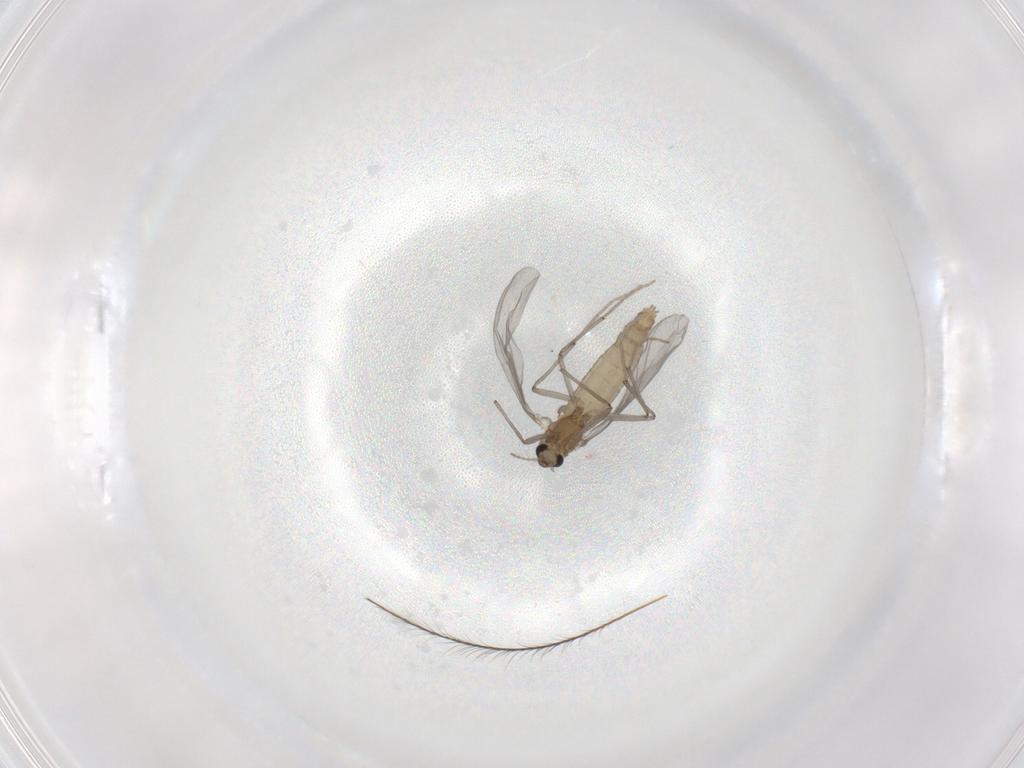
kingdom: Animalia
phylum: Arthropoda
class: Insecta
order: Diptera
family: Chironomidae
